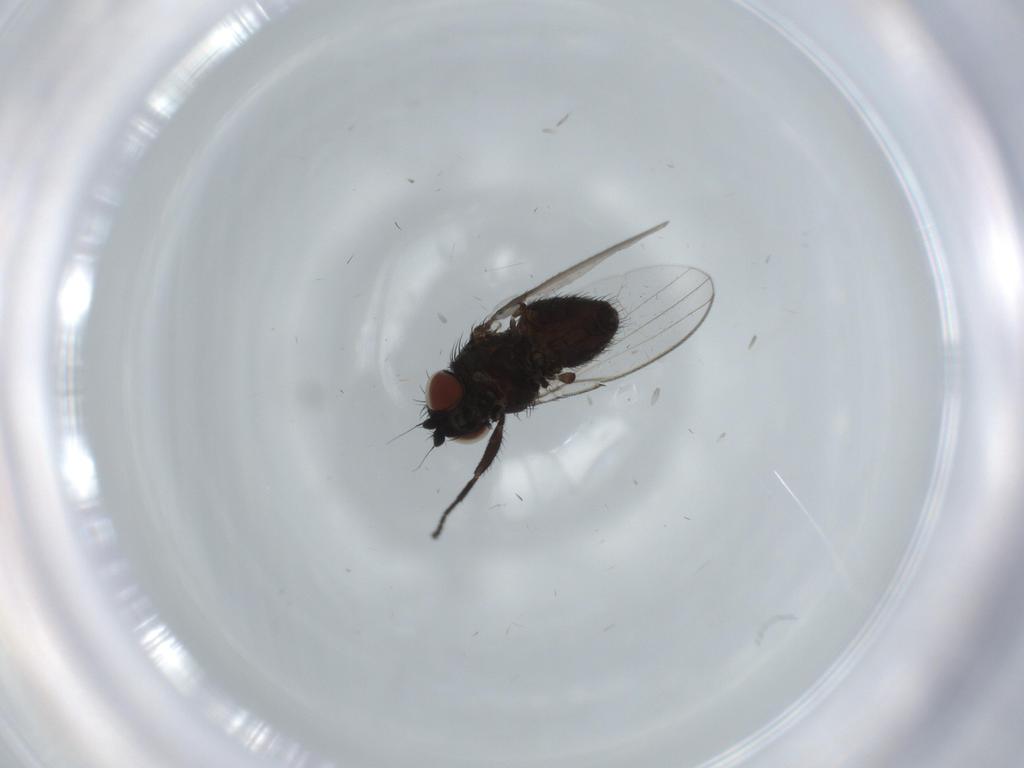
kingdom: Animalia
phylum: Arthropoda
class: Insecta
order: Diptera
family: Milichiidae
